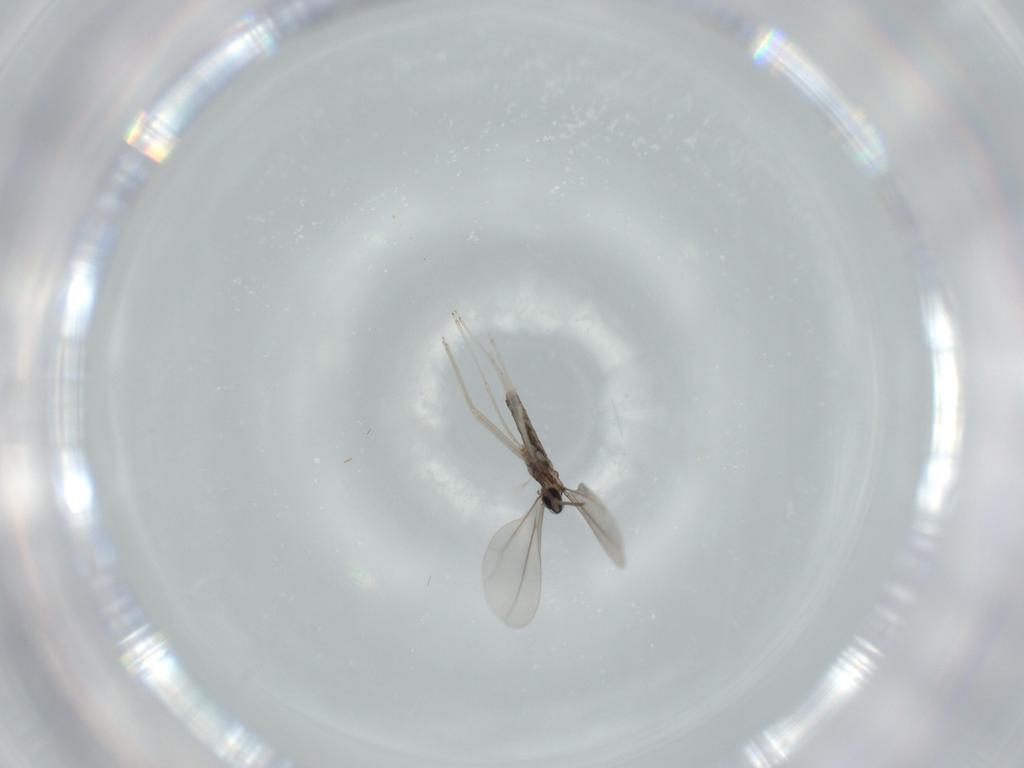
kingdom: Animalia
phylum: Arthropoda
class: Insecta
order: Diptera
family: Cecidomyiidae
